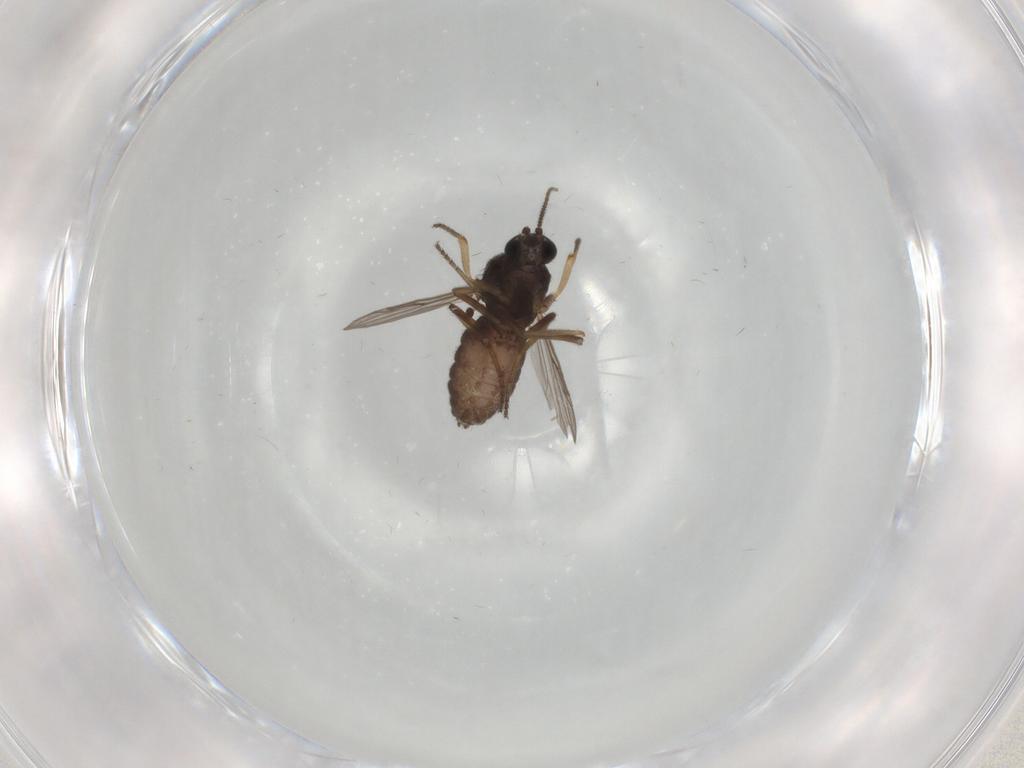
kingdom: Animalia
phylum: Arthropoda
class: Insecta
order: Diptera
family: Ceratopogonidae
